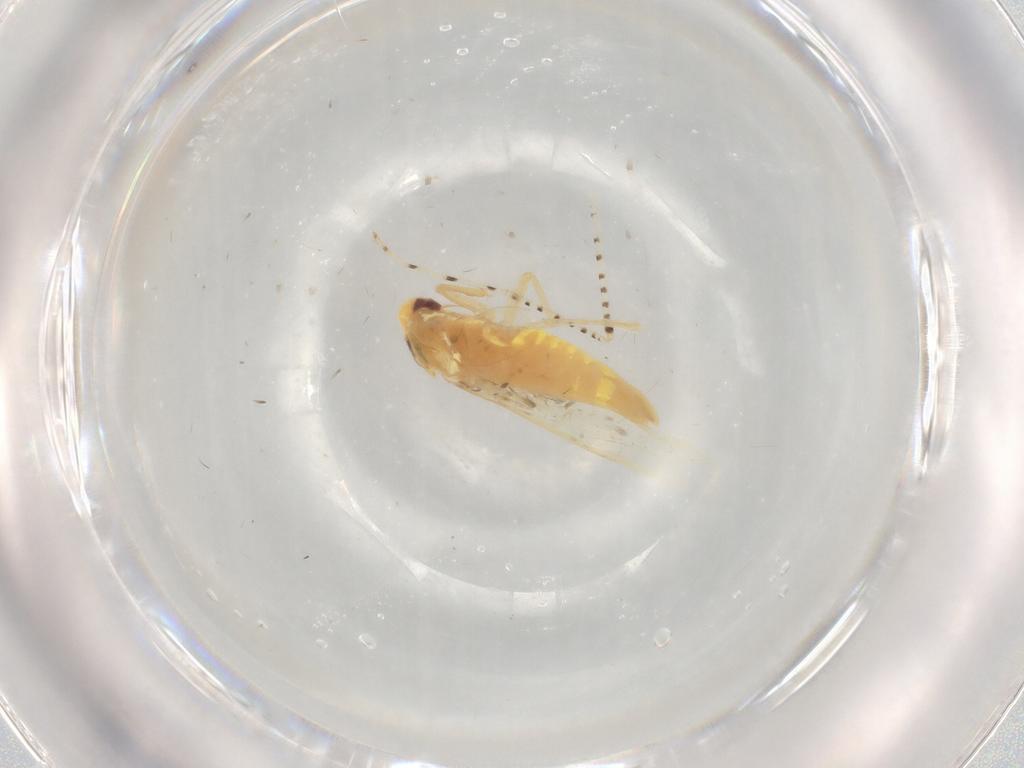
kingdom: Animalia
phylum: Arthropoda
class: Insecta
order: Hemiptera
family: Cicadellidae
